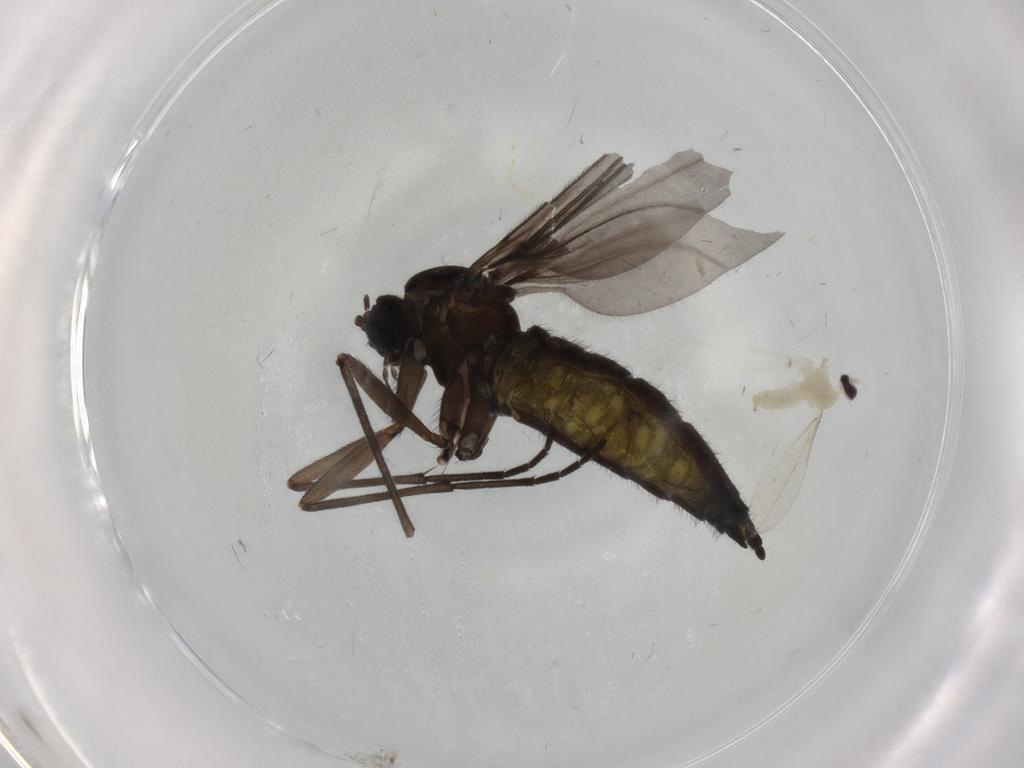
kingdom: Animalia
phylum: Arthropoda
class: Insecta
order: Diptera
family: Sciaridae
